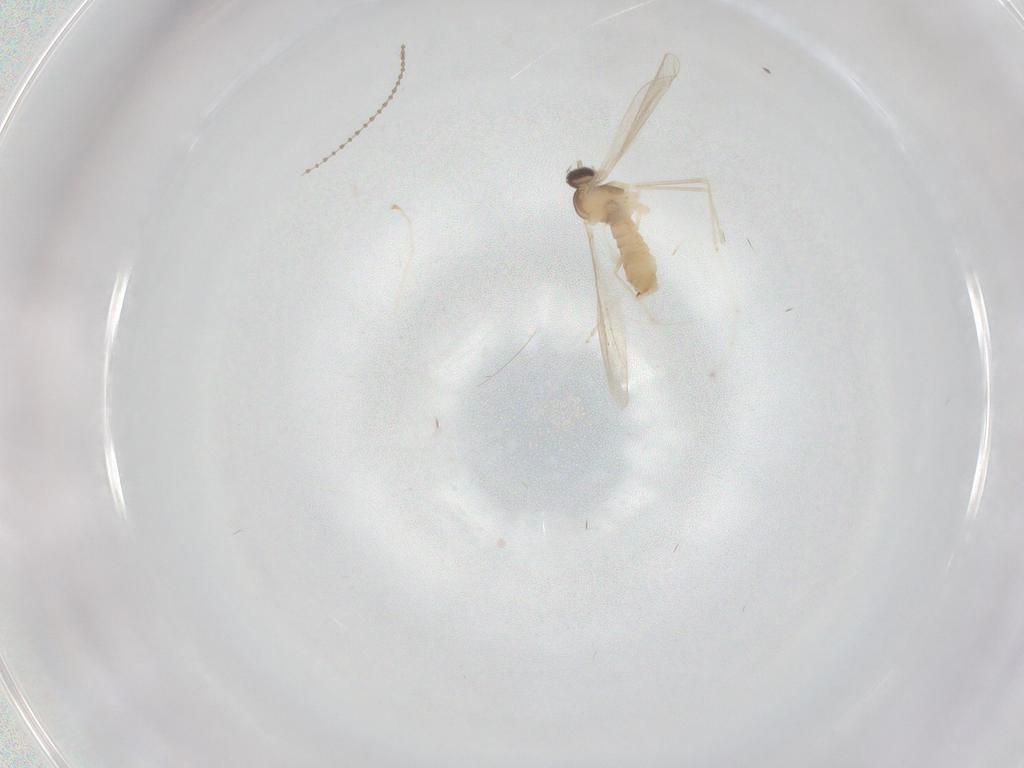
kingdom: Animalia
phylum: Arthropoda
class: Insecta
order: Diptera
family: Cecidomyiidae
